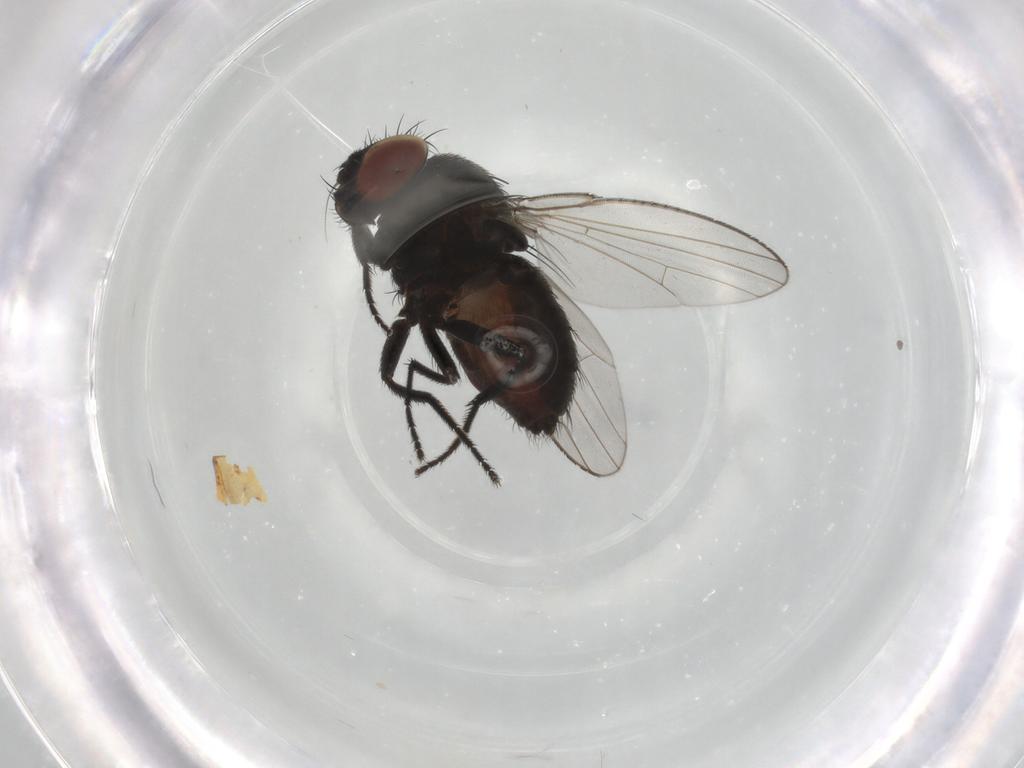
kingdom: Animalia
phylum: Arthropoda
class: Insecta
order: Diptera
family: Milichiidae
